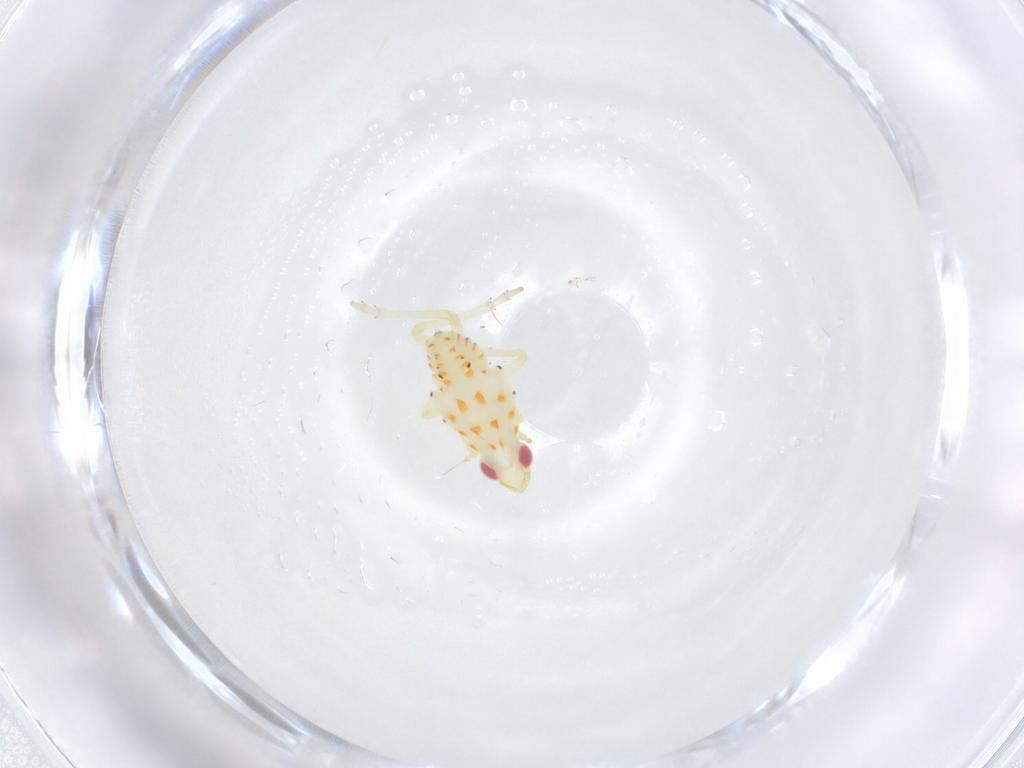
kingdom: Animalia
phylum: Arthropoda
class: Insecta
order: Hemiptera
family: Tropiduchidae
